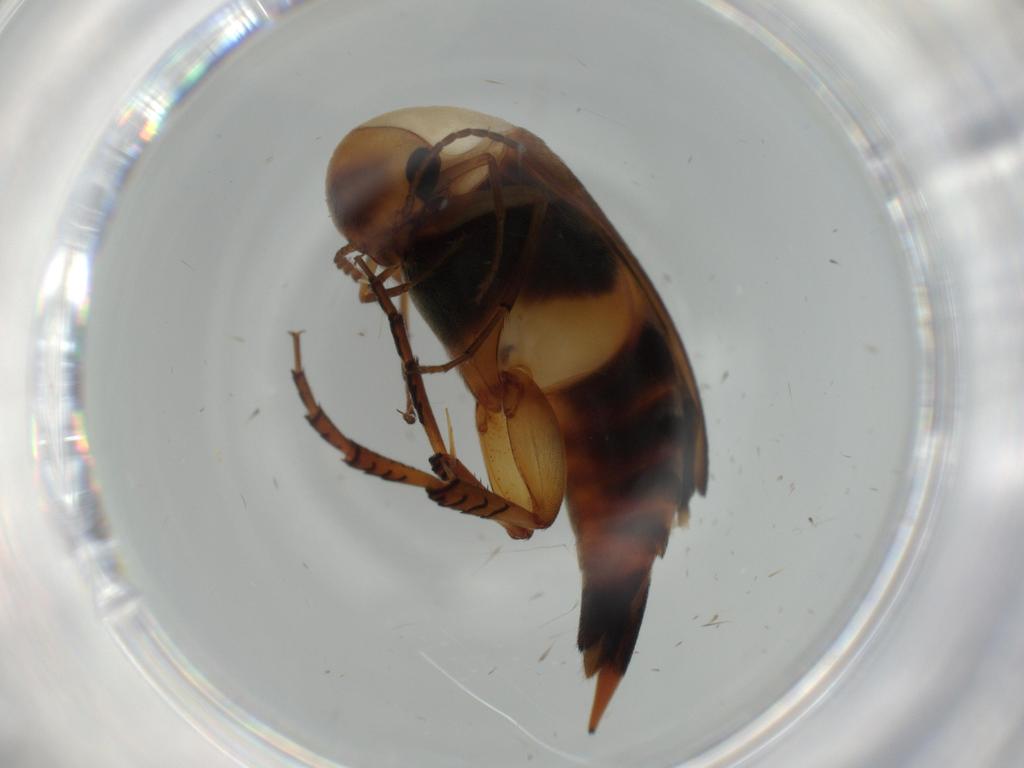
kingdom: Animalia
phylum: Arthropoda
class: Insecta
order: Coleoptera
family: Mordellidae
